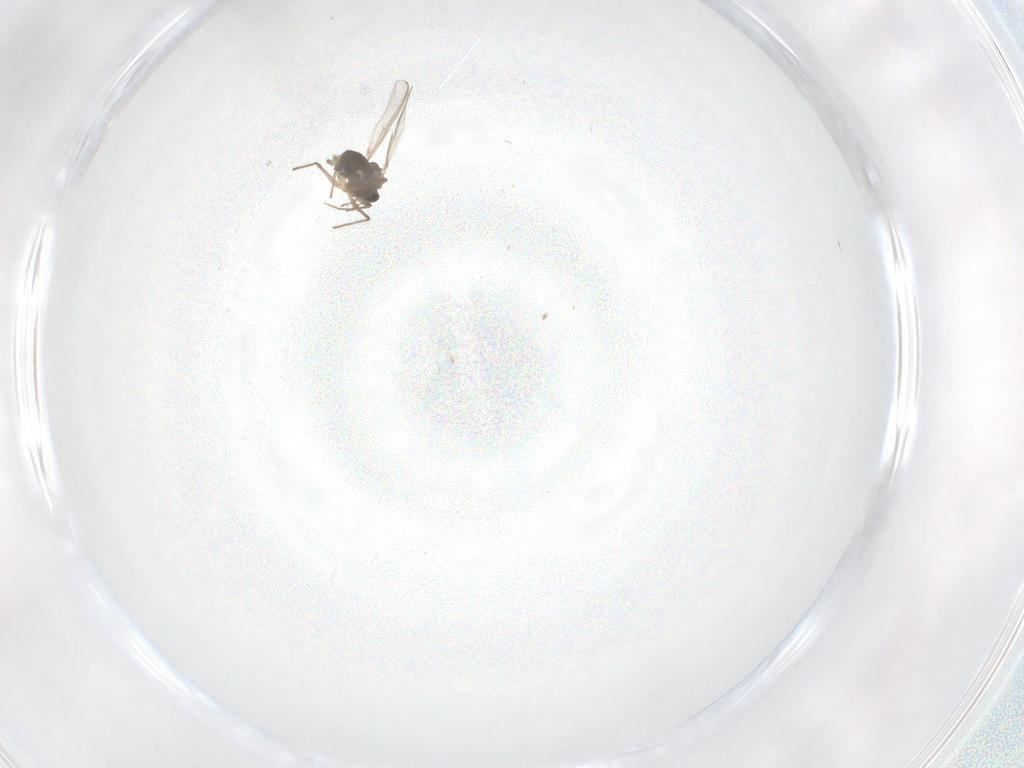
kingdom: Animalia
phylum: Arthropoda
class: Insecta
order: Diptera
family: Chironomidae
